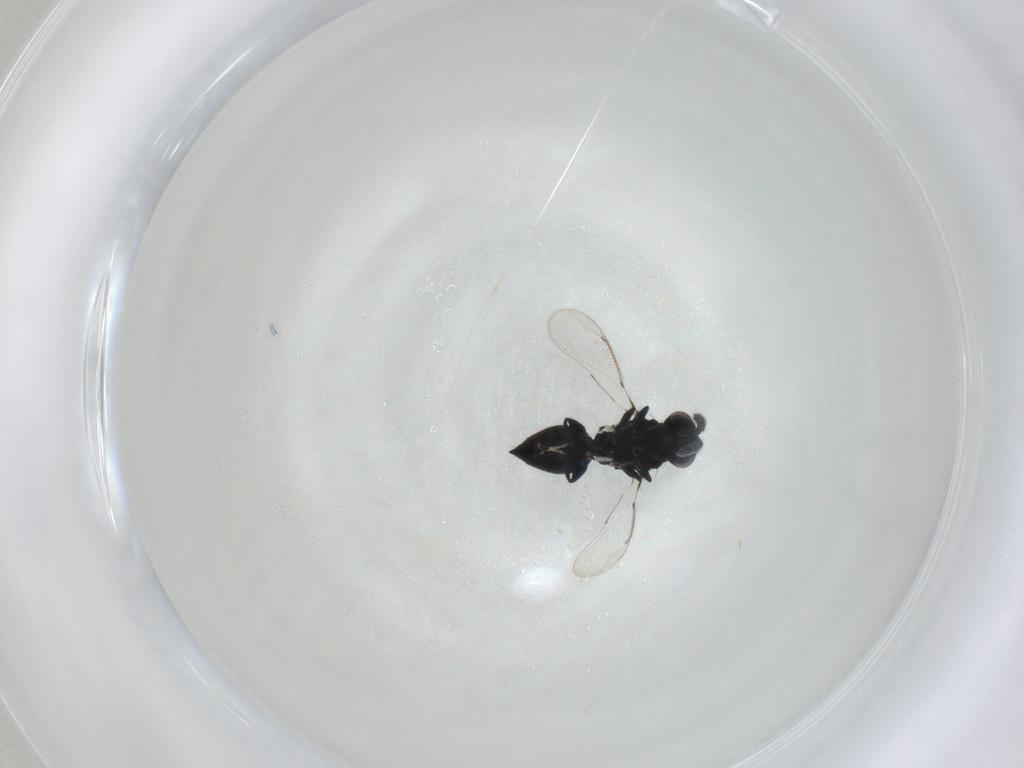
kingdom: Animalia
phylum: Arthropoda
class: Insecta
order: Hymenoptera
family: Eulophidae
